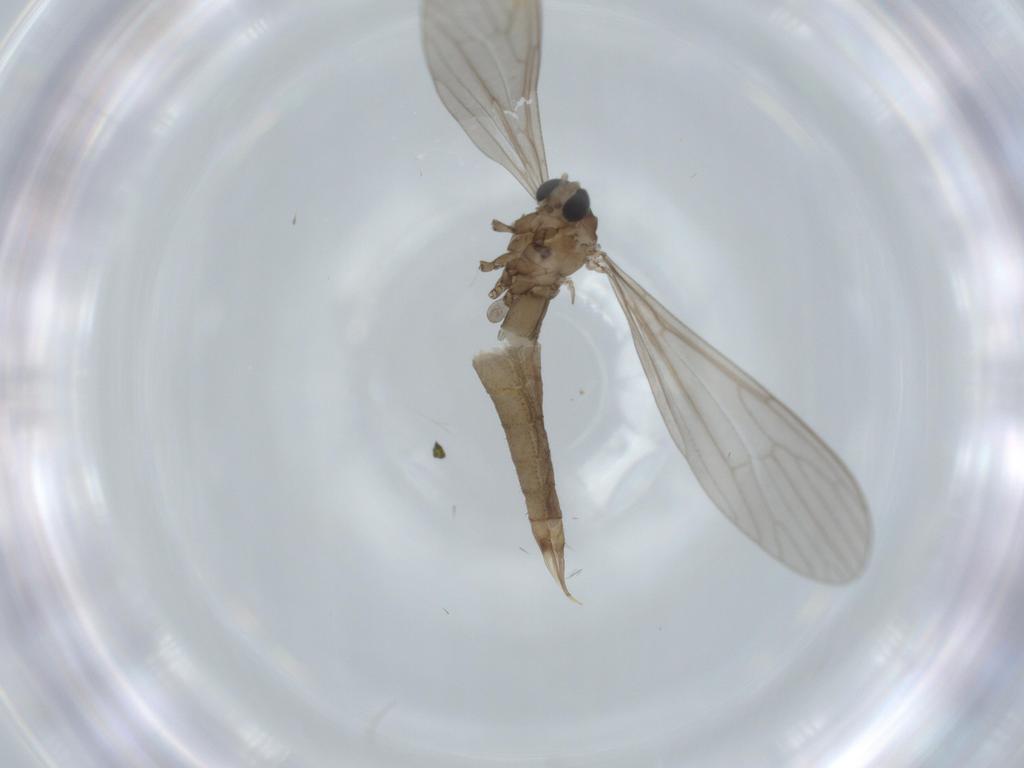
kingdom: Animalia
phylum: Arthropoda
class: Insecta
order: Diptera
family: Limoniidae
